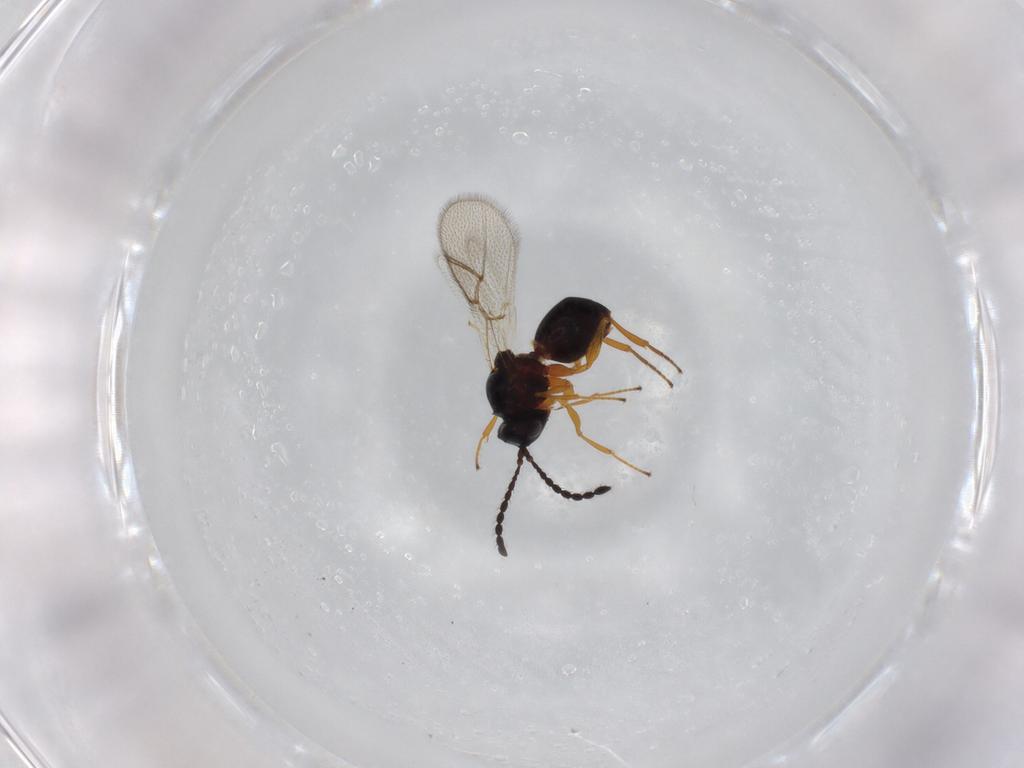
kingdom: Animalia
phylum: Arthropoda
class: Insecta
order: Hymenoptera
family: Figitidae
